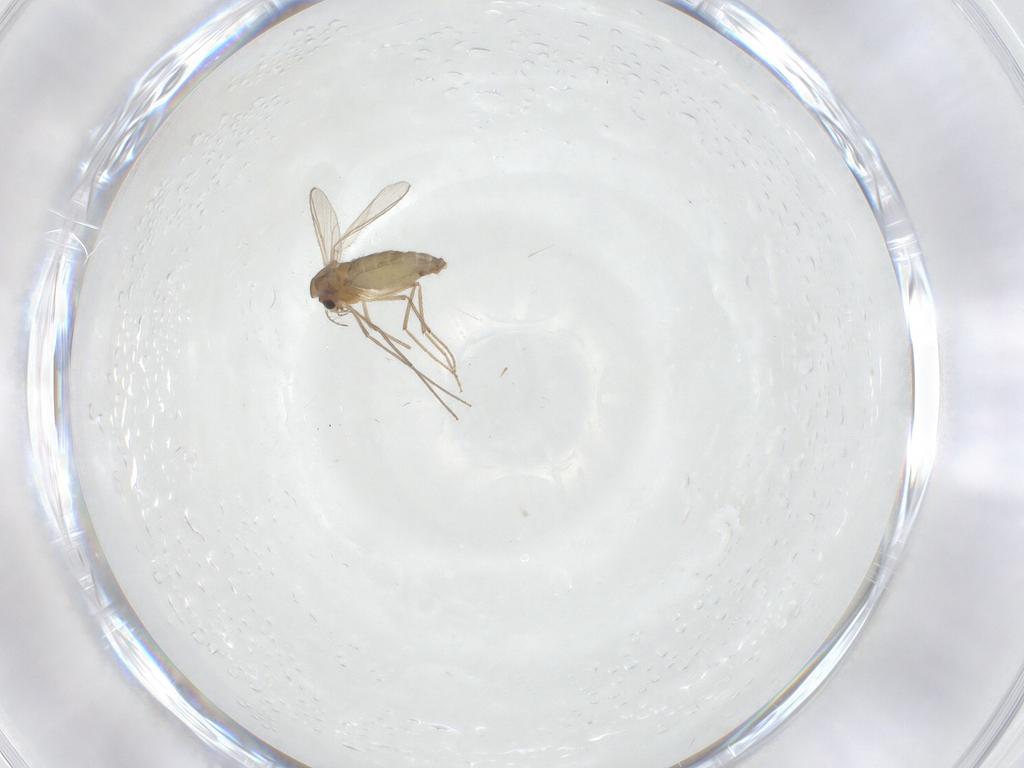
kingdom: Animalia
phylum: Arthropoda
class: Insecta
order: Diptera
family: Chironomidae
